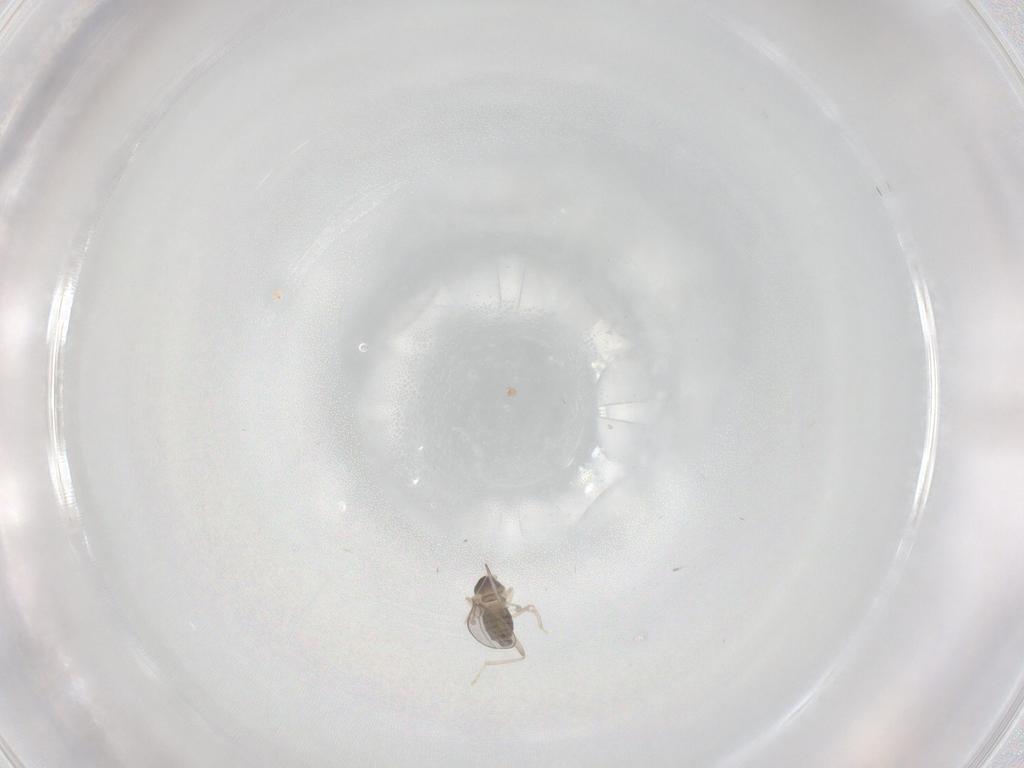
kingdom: Animalia
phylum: Arthropoda
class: Insecta
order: Diptera
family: Cecidomyiidae
